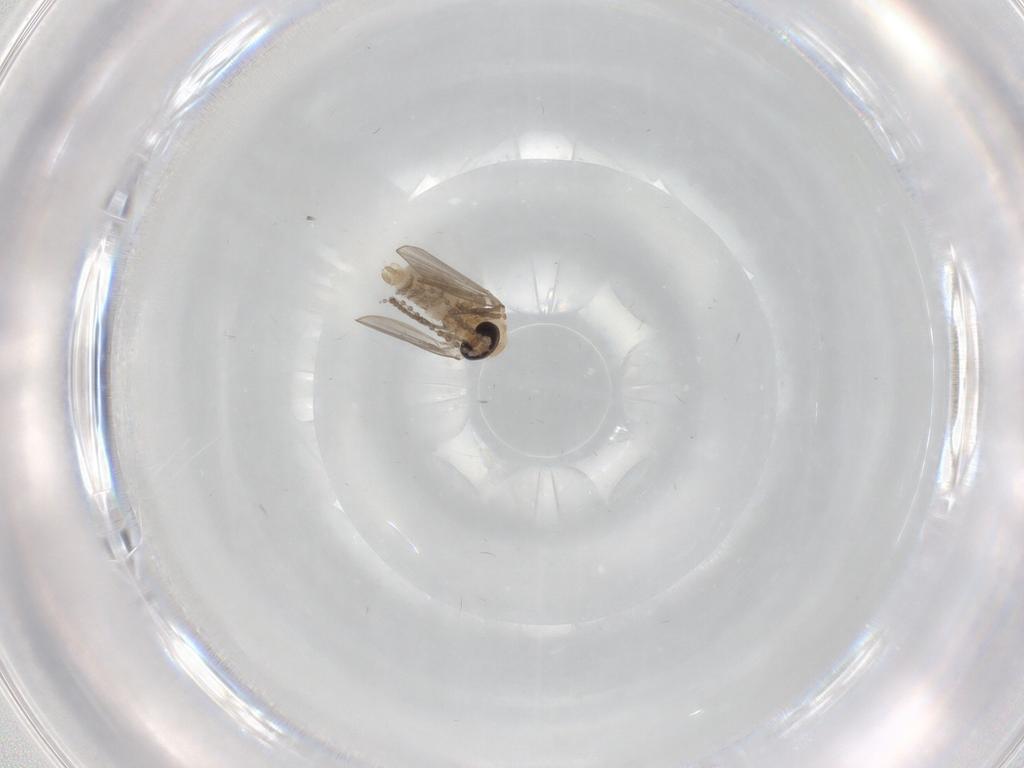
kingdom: Animalia
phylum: Arthropoda
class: Insecta
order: Diptera
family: Psychodidae
